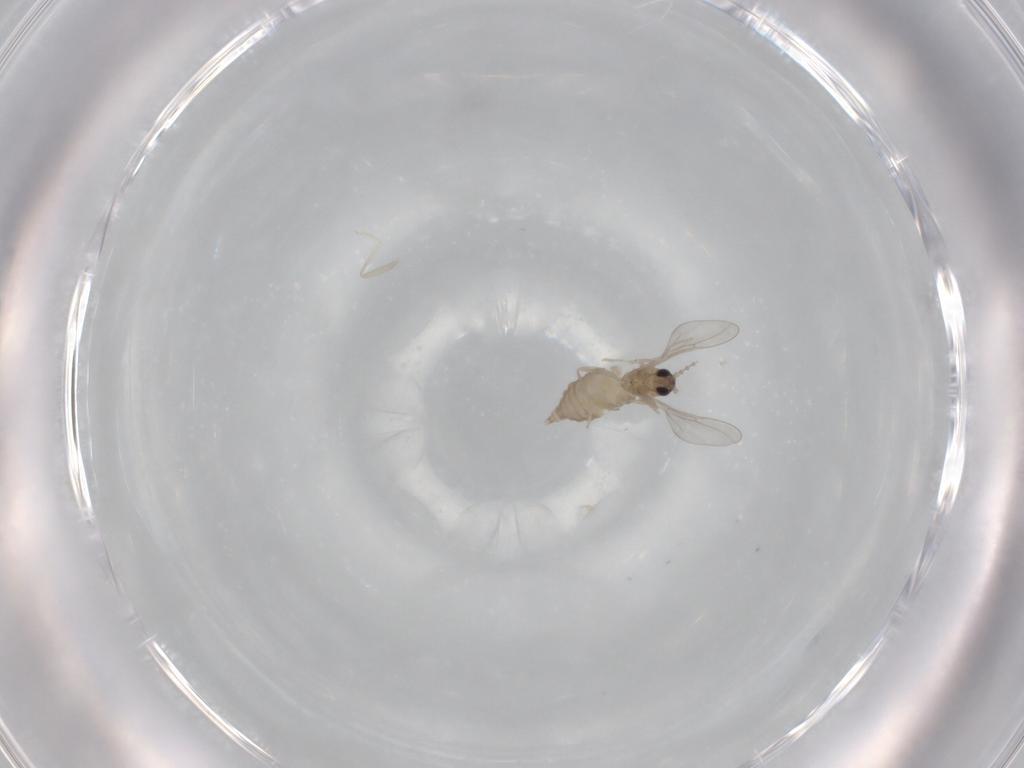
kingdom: Animalia
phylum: Arthropoda
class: Insecta
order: Diptera
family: Cecidomyiidae
